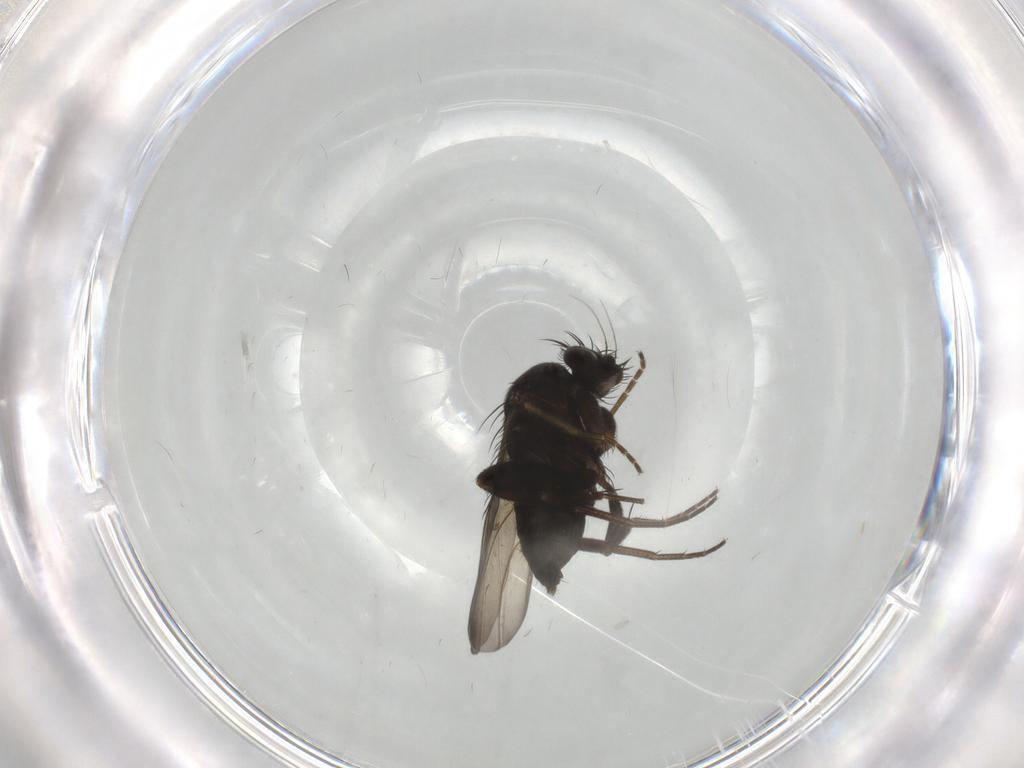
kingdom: Animalia
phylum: Arthropoda
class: Insecta
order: Diptera
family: Phoridae
